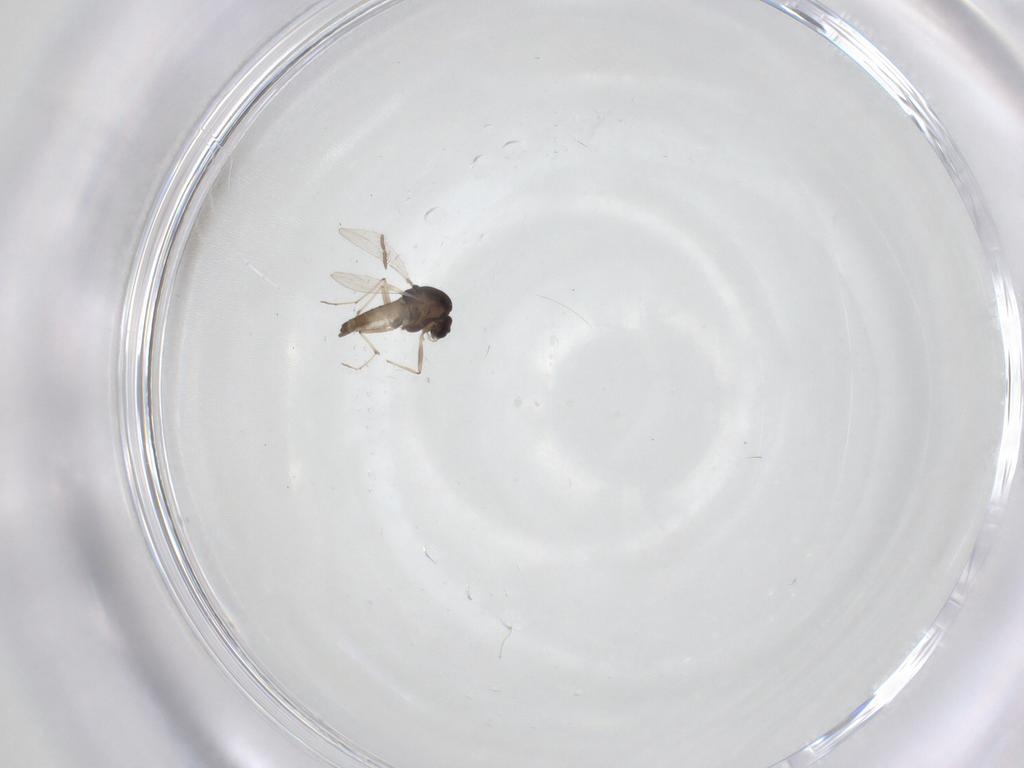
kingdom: Animalia
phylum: Arthropoda
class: Insecta
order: Diptera
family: Chironomidae
